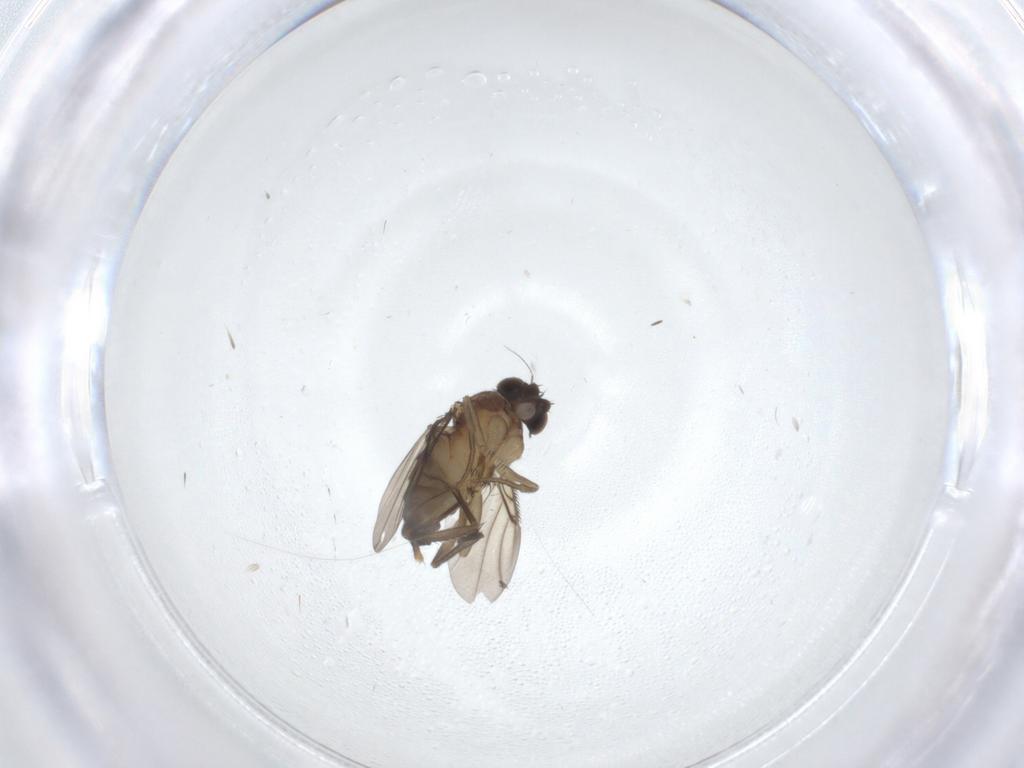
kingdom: Animalia
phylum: Arthropoda
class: Insecta
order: Diptera
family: Phoridae
